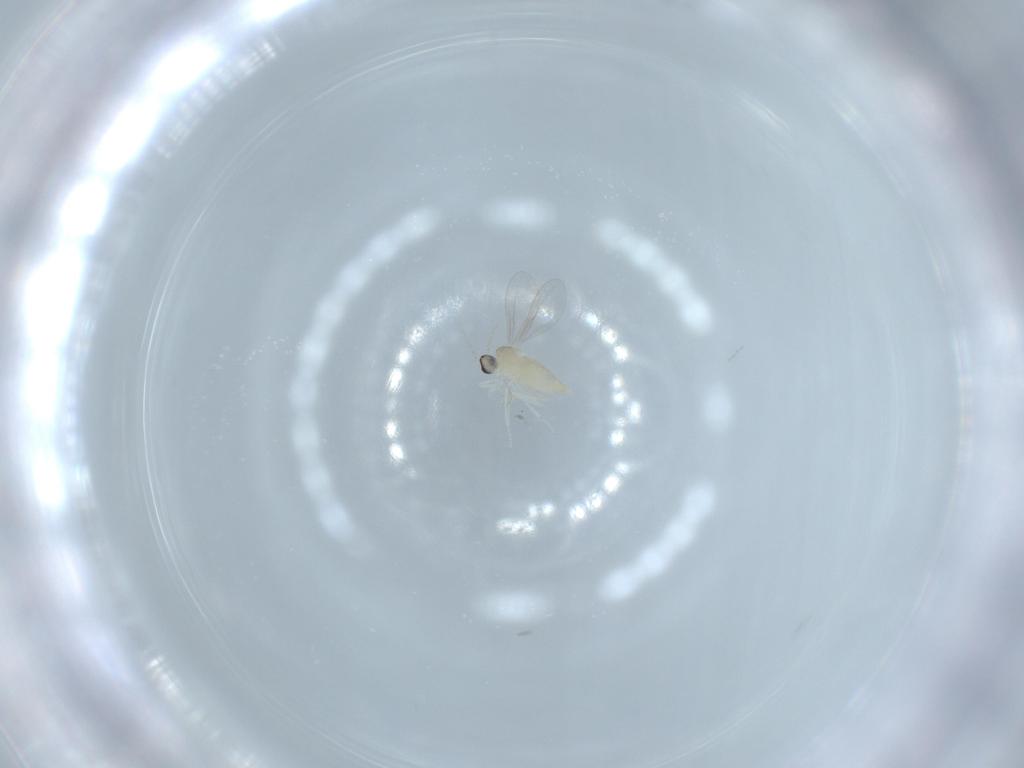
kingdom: Animalia
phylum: Arthropoda
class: Insecta
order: Diptera
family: Cecidomyiidae
